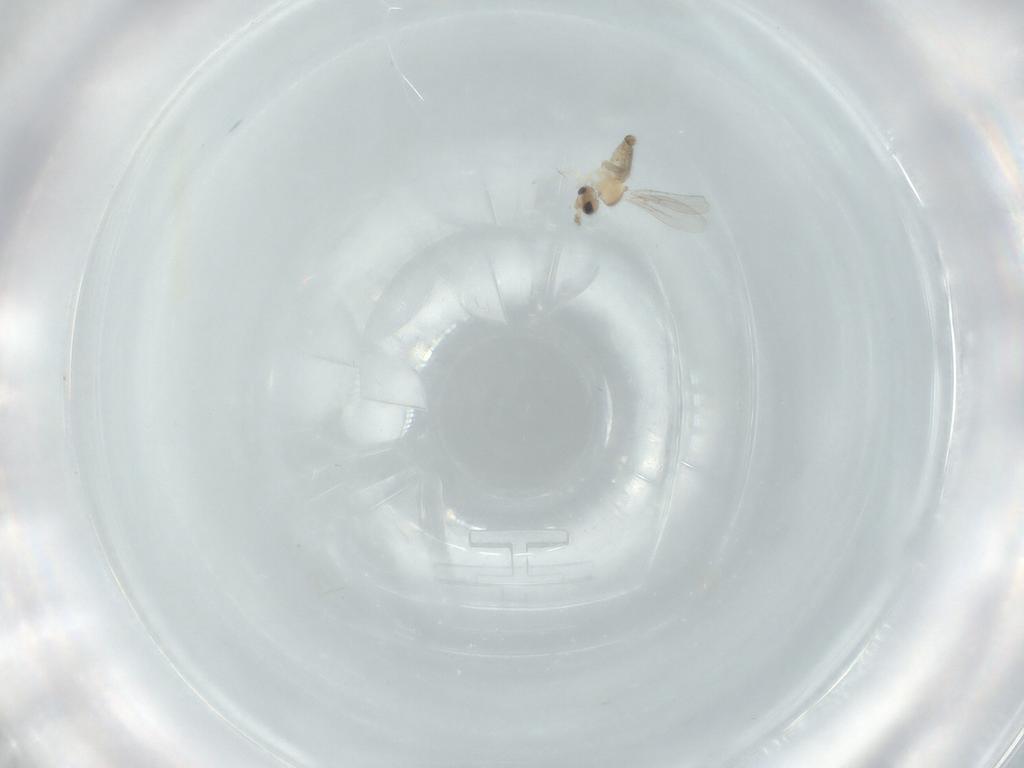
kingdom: Animalia
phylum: Arthropoda
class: Insecta
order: Diptera
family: Cecidomyiidae
